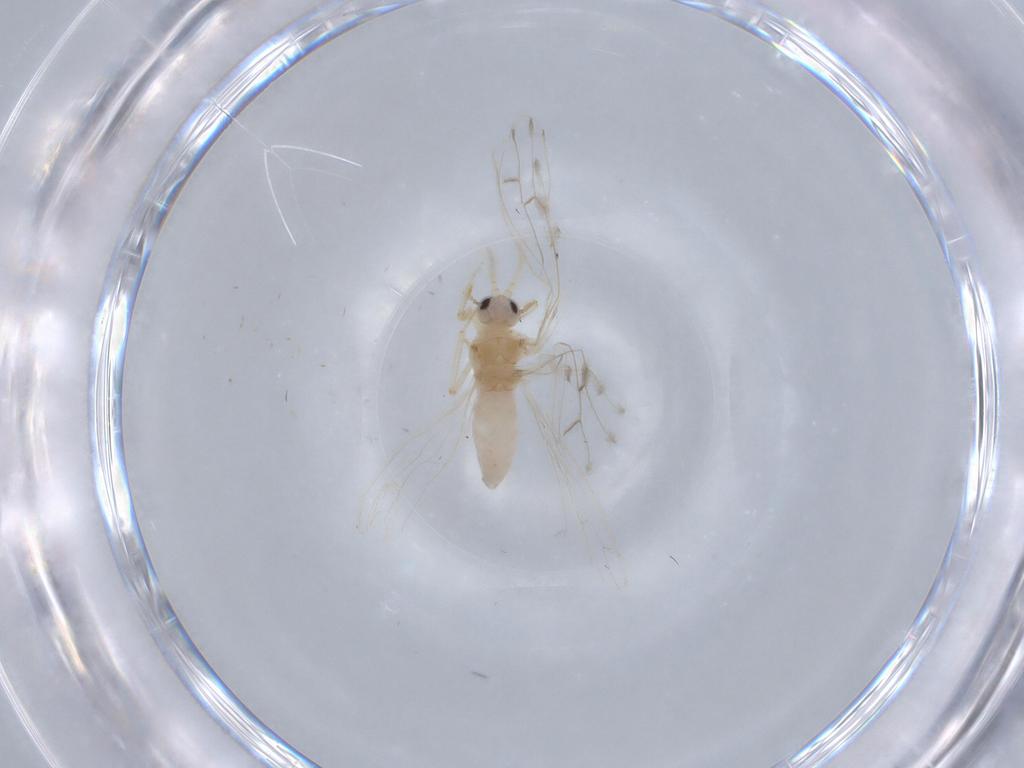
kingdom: Animalia
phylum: Arthropoda
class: Insecta
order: Neuroptera
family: Coniopterygidae
